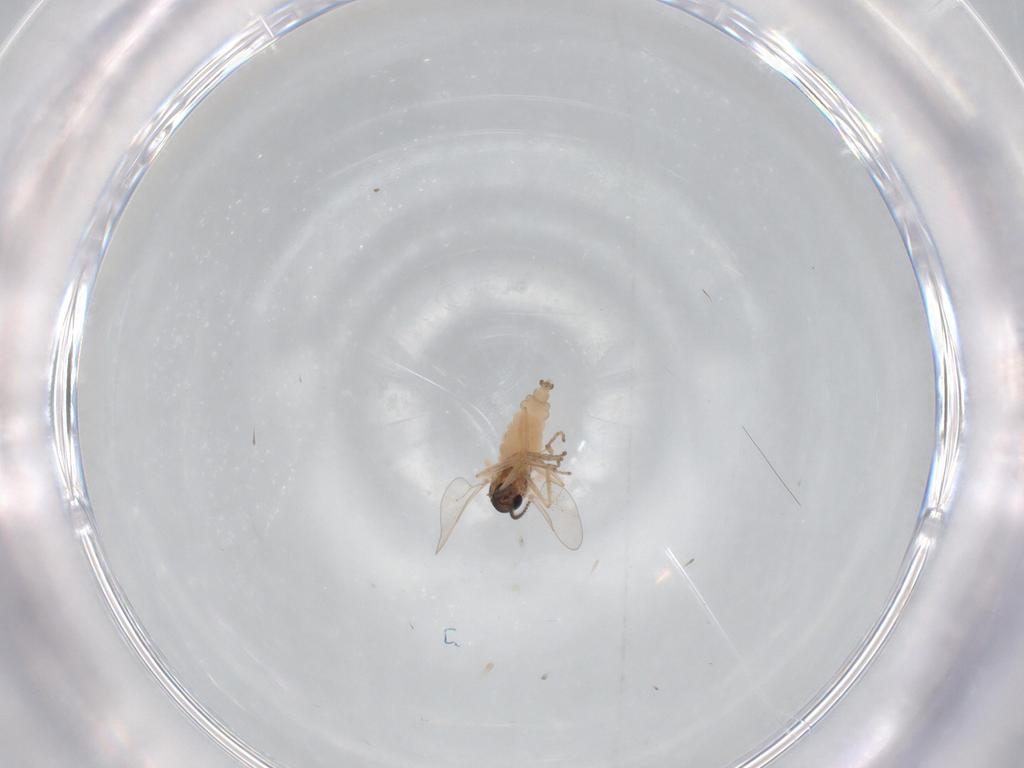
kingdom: Animalia
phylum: Arthropoda
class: Insecta
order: Diptera
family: Cecidomyiidae
